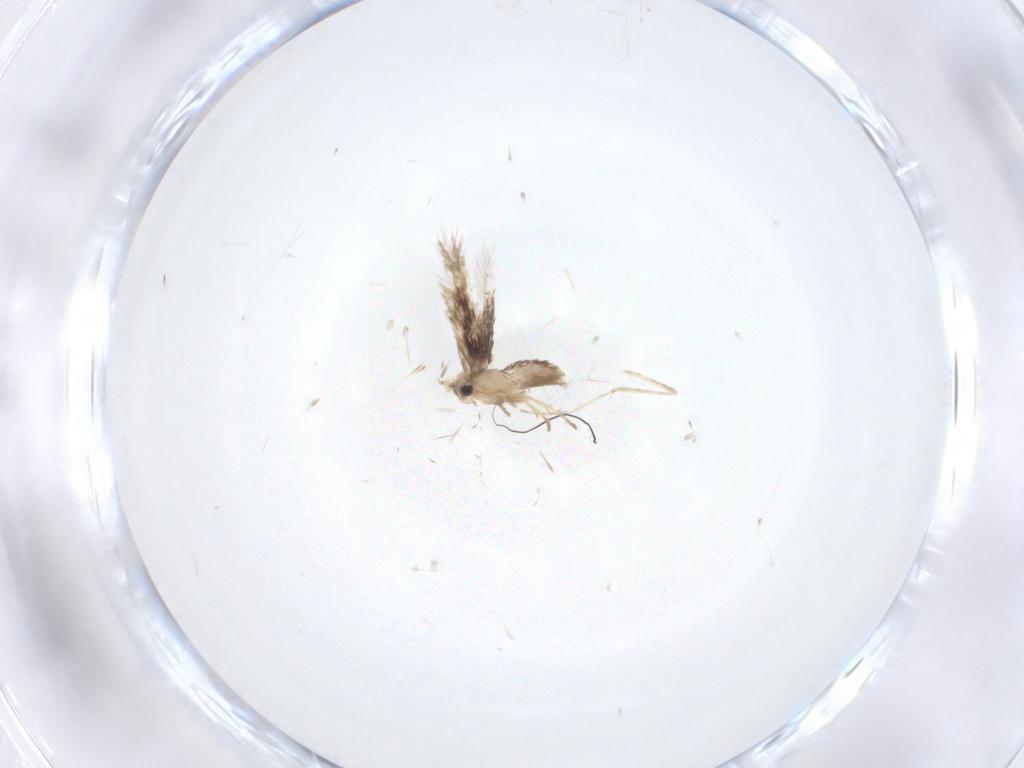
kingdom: Animalia
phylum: Arthropoda
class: Insecta
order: Lepidoptera
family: Nepticulidae
